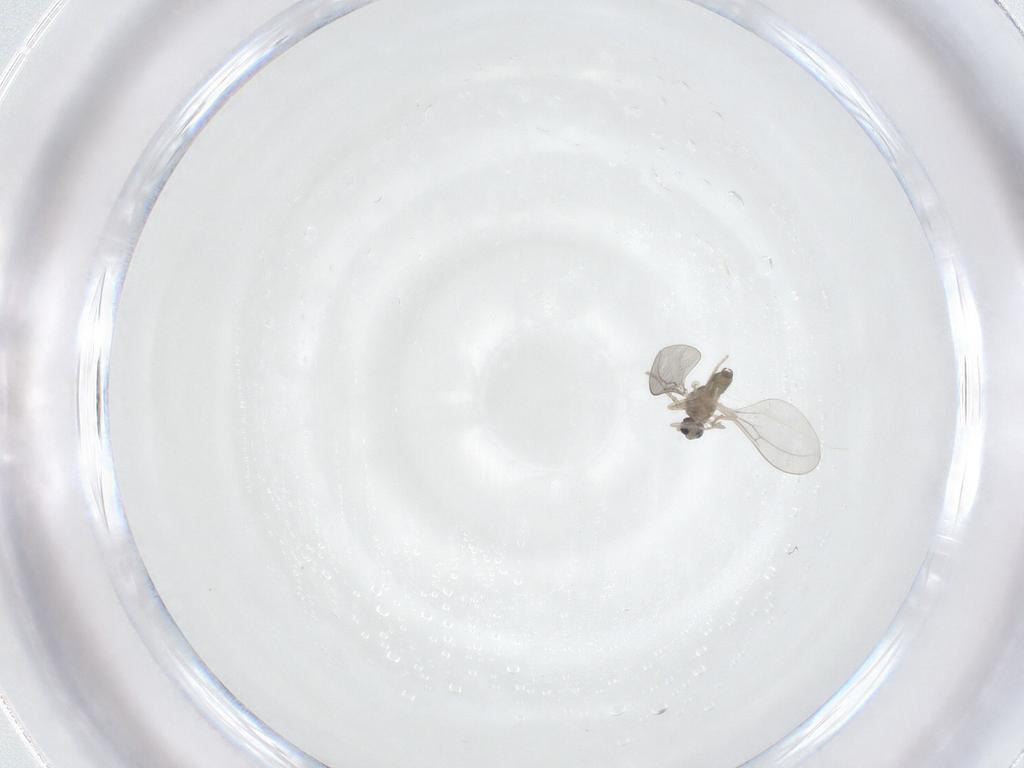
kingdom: Animalia
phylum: Arthropoda
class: Insecta
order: Diptera
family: Cecidomyiidae
